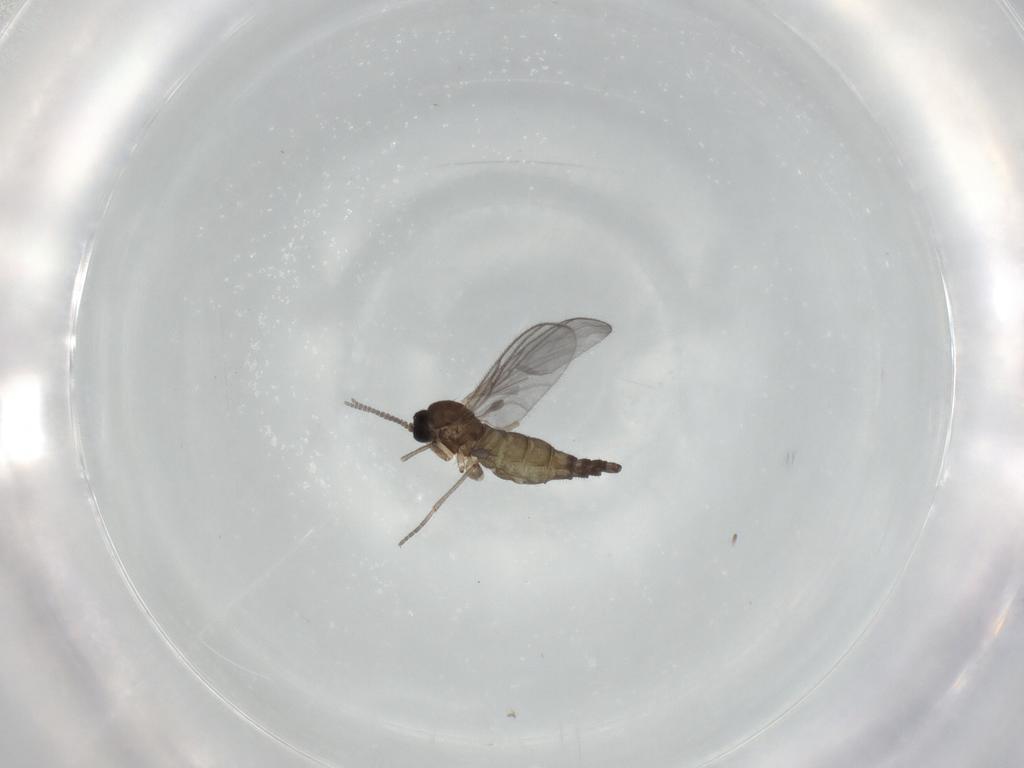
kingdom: Animalia
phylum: Arthropoda
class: Insecta
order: Diptera
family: Sciaridae
